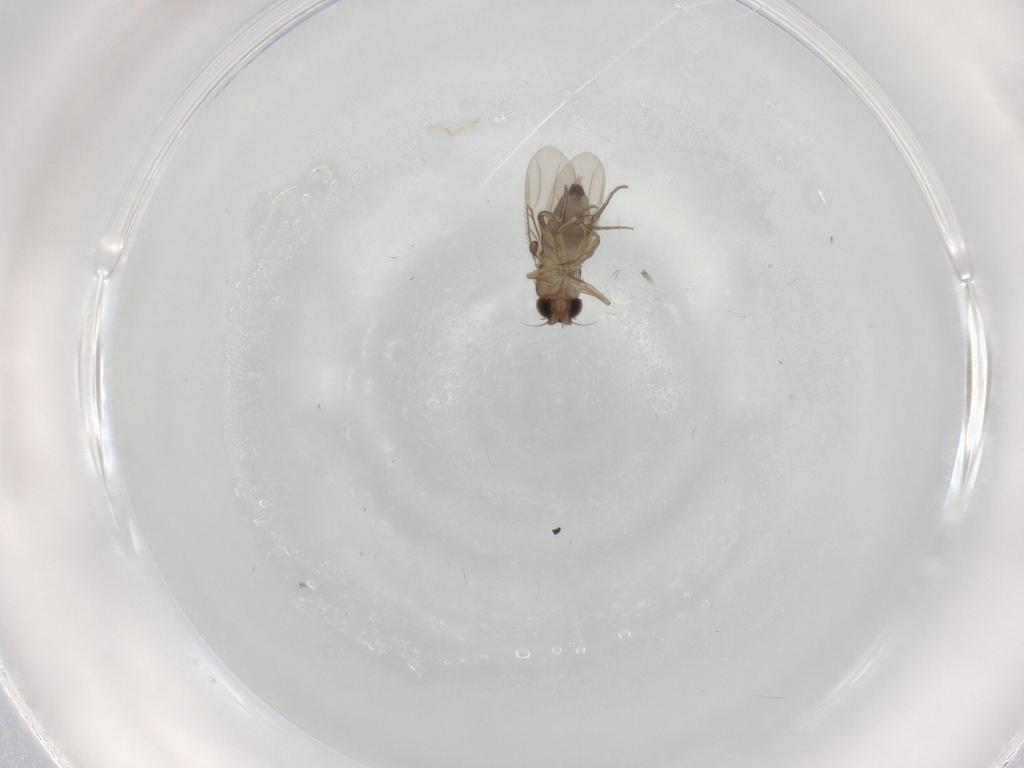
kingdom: Animalia
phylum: Arthropoda
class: Insecta
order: Diptera
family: Phoridae
